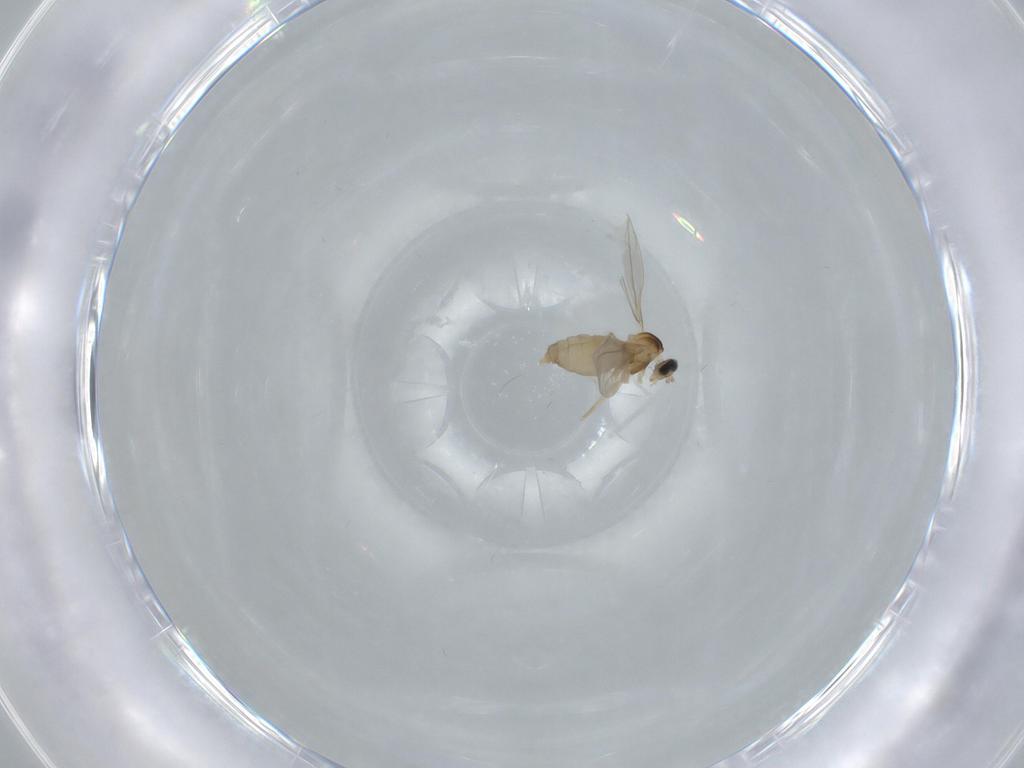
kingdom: Animalia
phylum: Arthropoda
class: Insecta
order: Diptera
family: Cecidomyiidae
